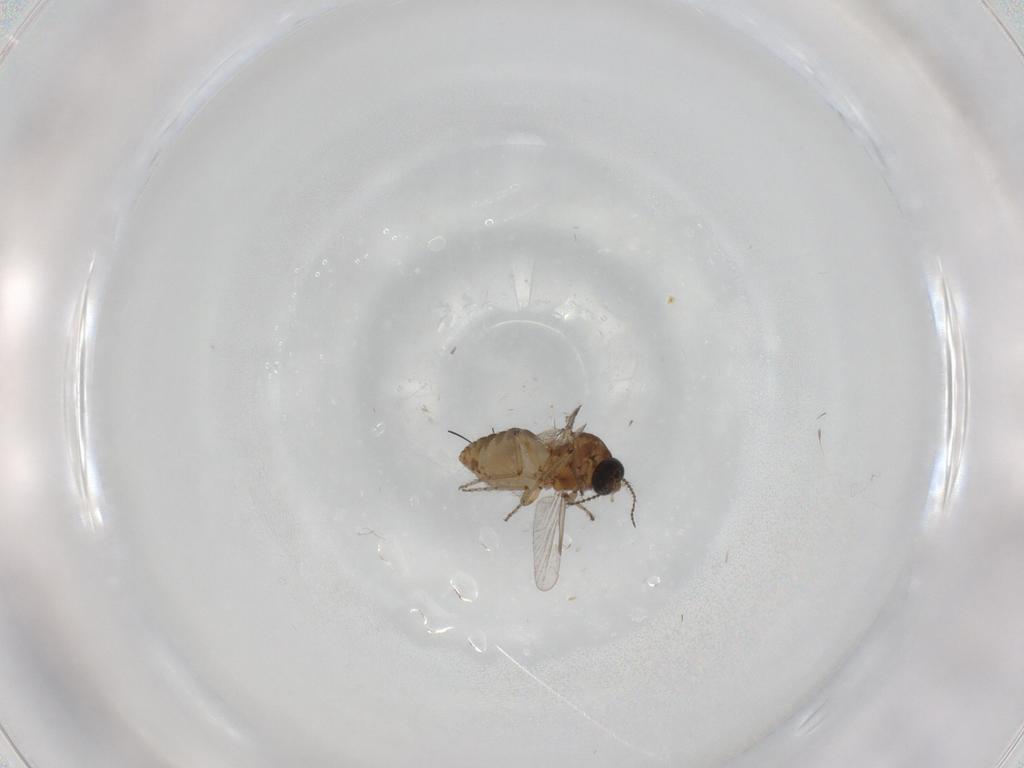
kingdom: Animalia
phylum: Arthropoda
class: Insecta
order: Diptera
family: Ceratopogonidae
